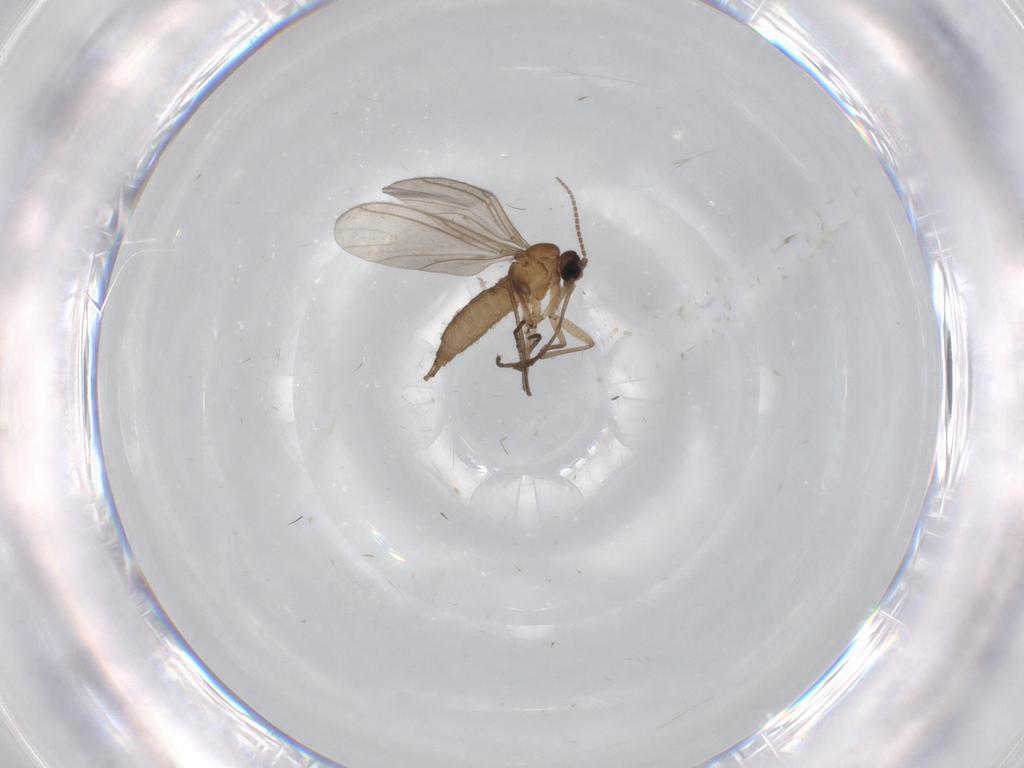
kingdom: Animalia
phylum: Arthropoda
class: Insecta
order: Diptera
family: Chironomidae
